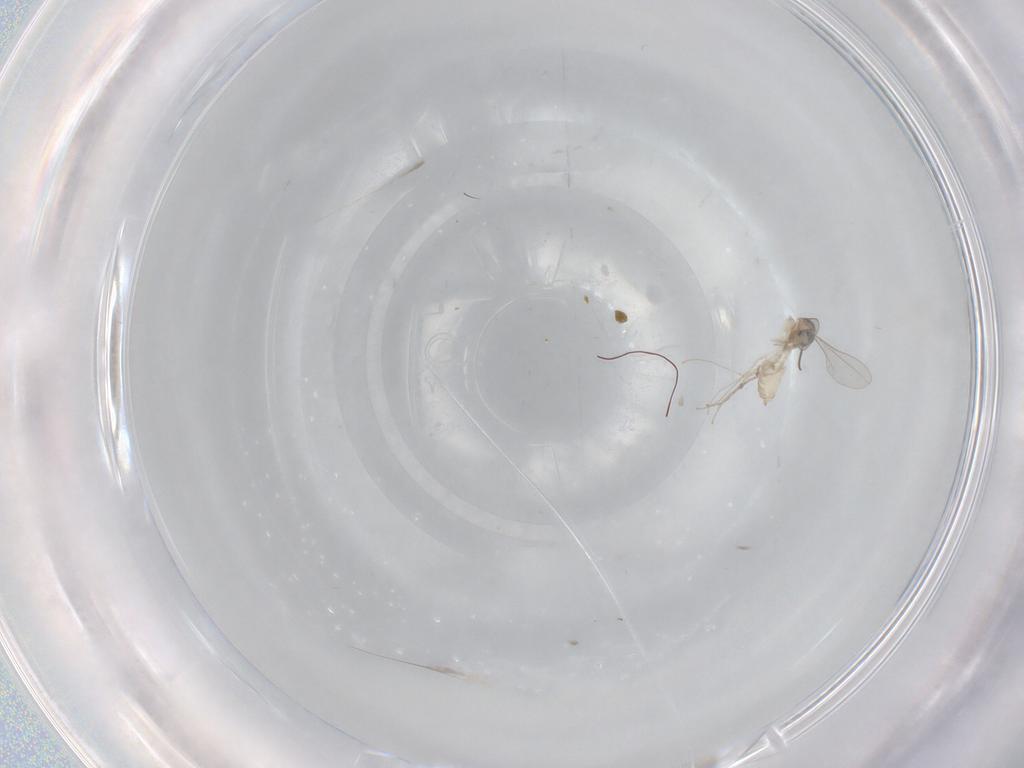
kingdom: Animalia
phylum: Arthropoda
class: Insecta
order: Diptera
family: Cecidomyiidae
